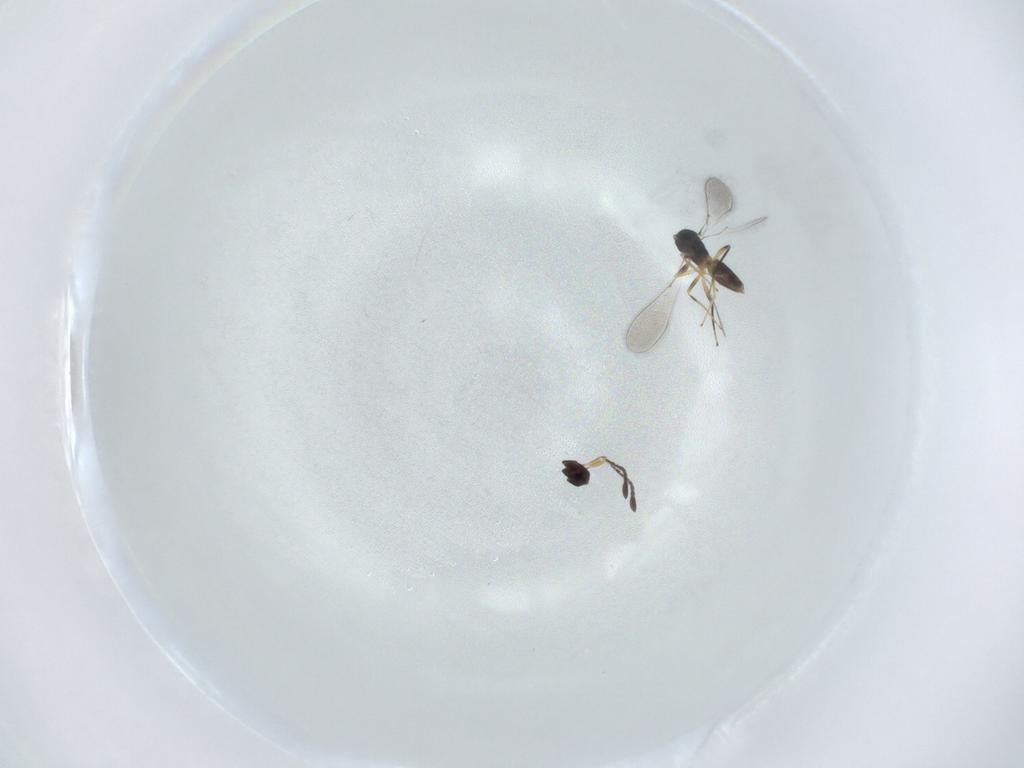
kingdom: Animalia
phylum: Arthropoda
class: Insecta
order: Hymenoptera
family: Mymaridae
